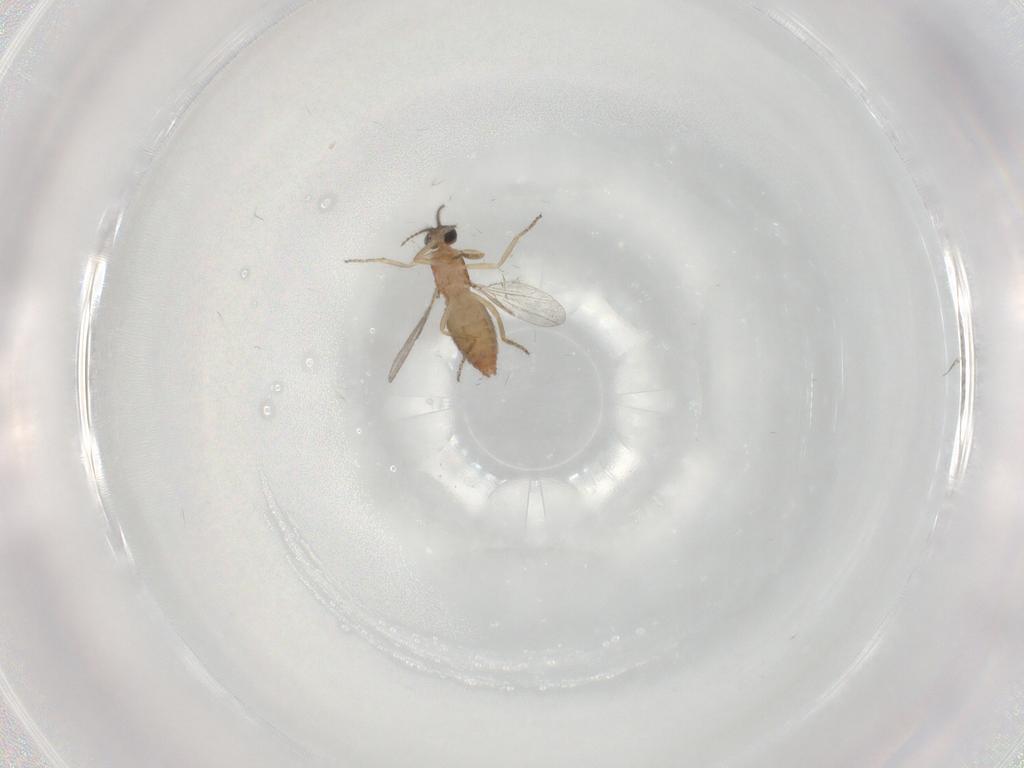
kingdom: Animalia
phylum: Arthropoda
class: Insecta
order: Diptera
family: Ceratopogonidae
